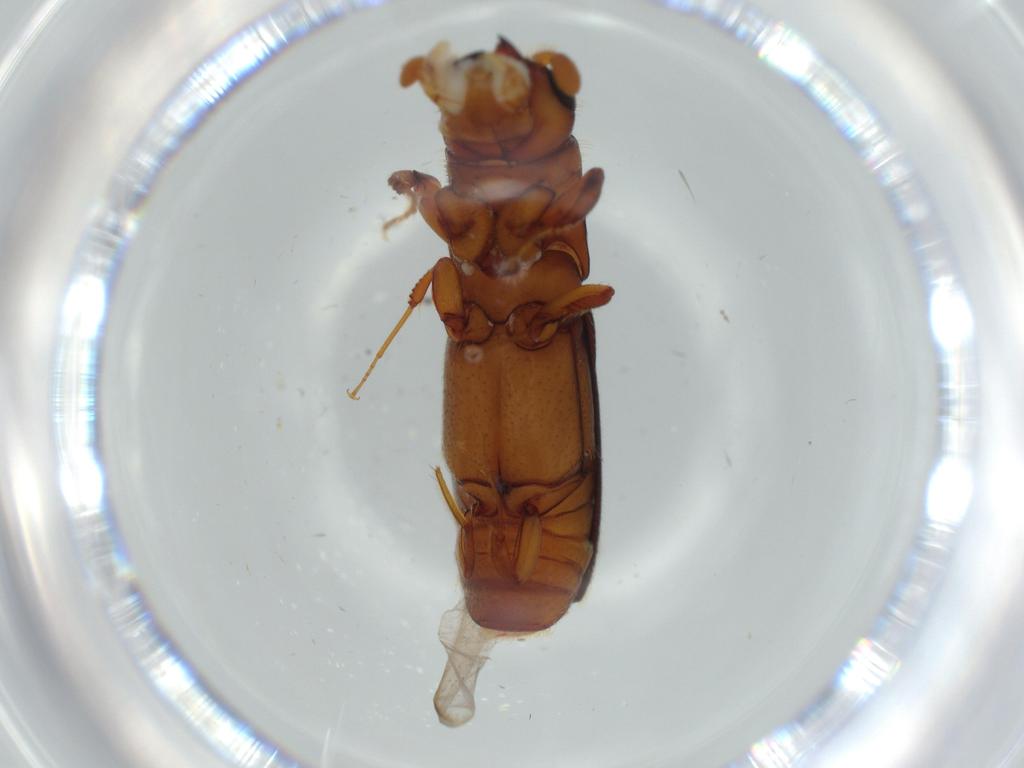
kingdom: Animalia
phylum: Arthropoda
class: Insecta
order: Coleoptera
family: Curculionidae
